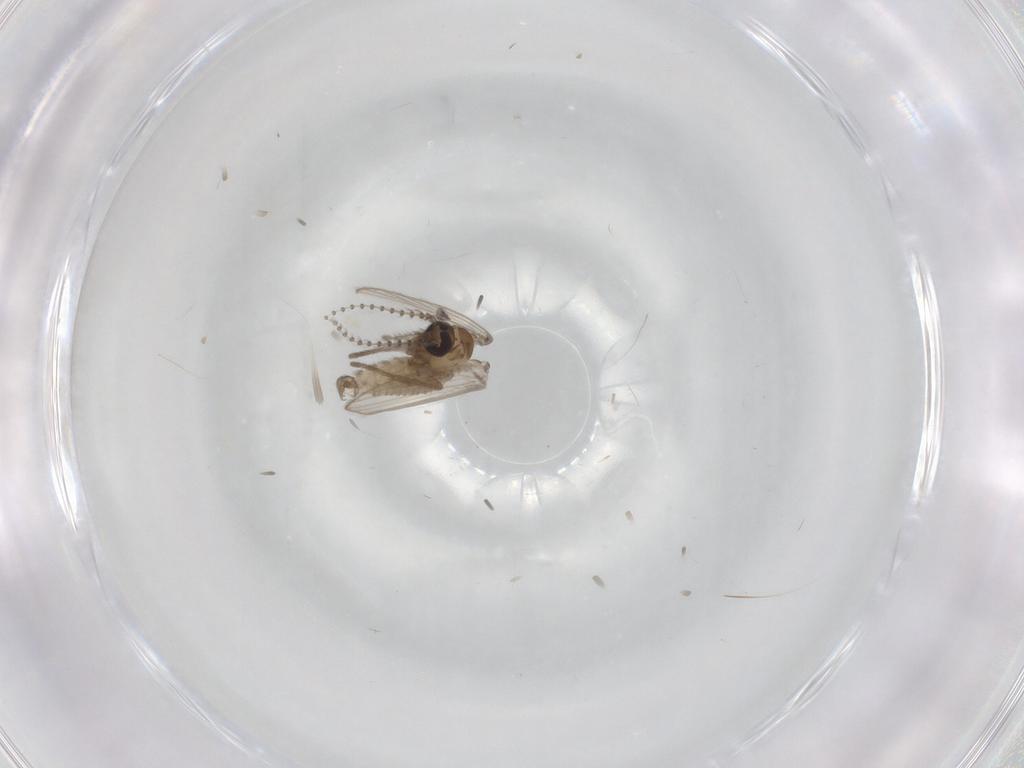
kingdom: Animalia
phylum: Arthropoda
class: Insecta
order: Diptera
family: Psychodidae
